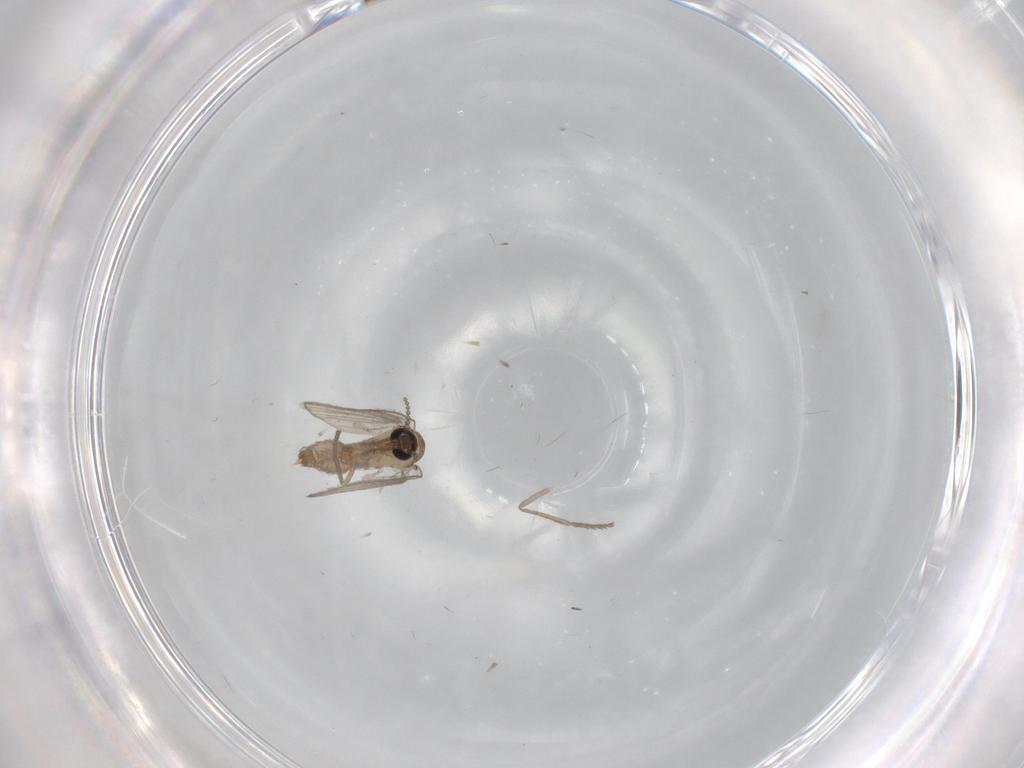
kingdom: Animalia
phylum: Arthropoda
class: Insecta
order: Diptera
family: Psychodidae
